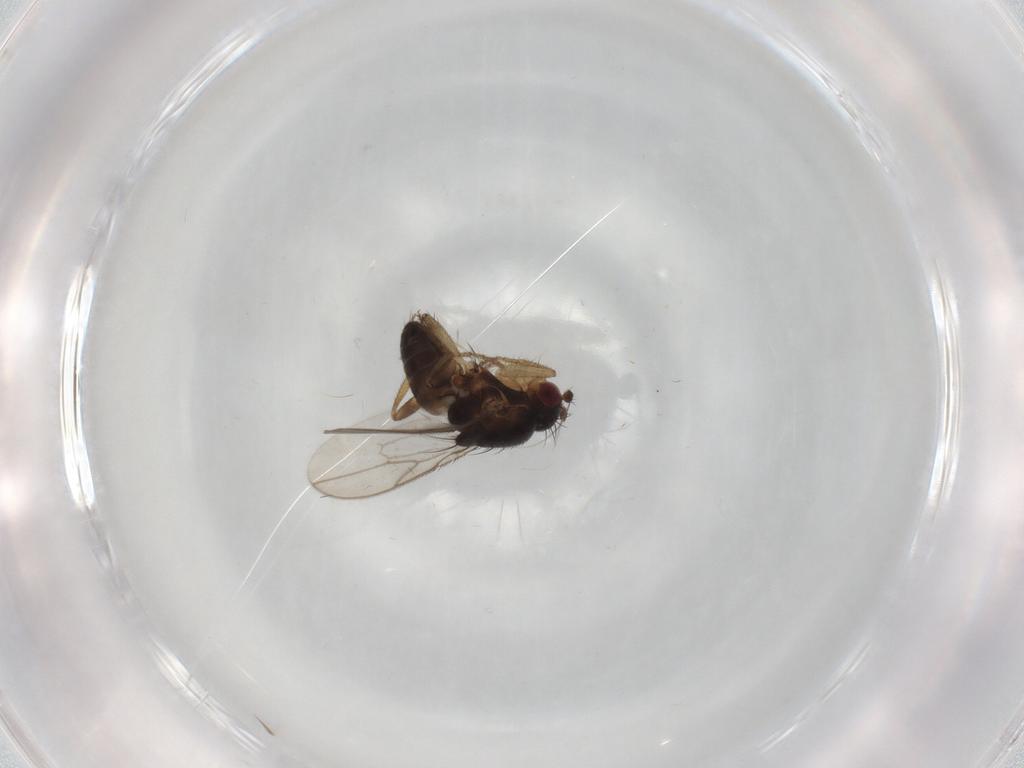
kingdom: Animalia
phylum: Arthropoda
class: Insecta
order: Diptera
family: Sphaeroceridae
